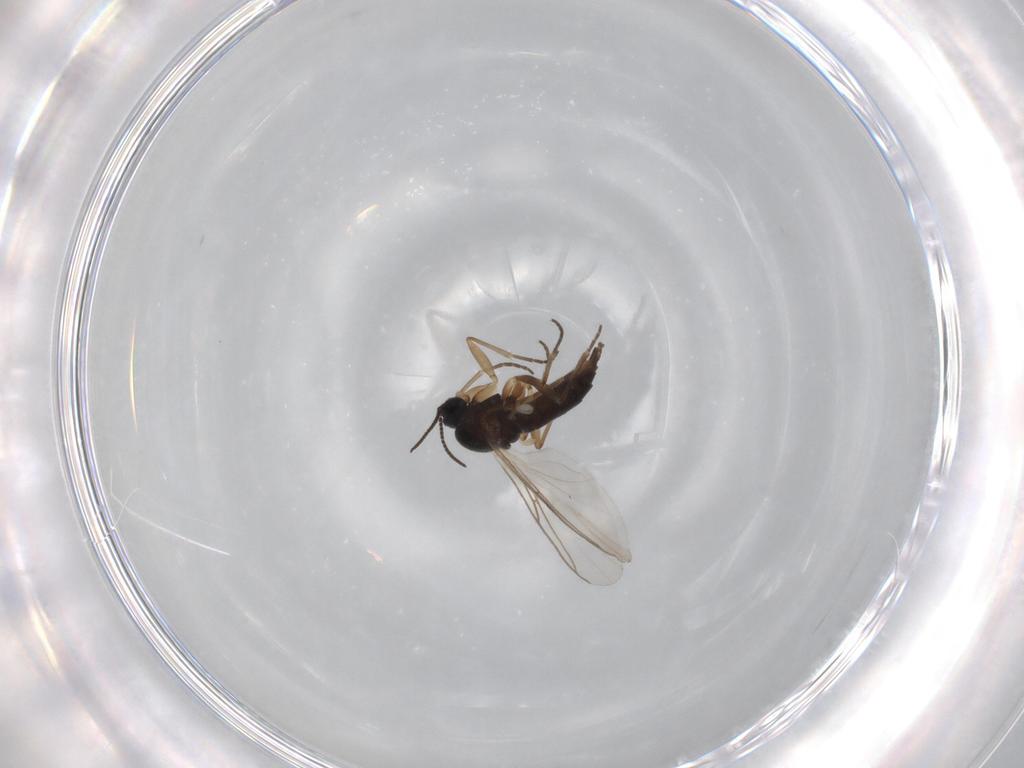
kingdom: Animalia
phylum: Arthropoda
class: Insecta
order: Diptera
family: Sciaridae
